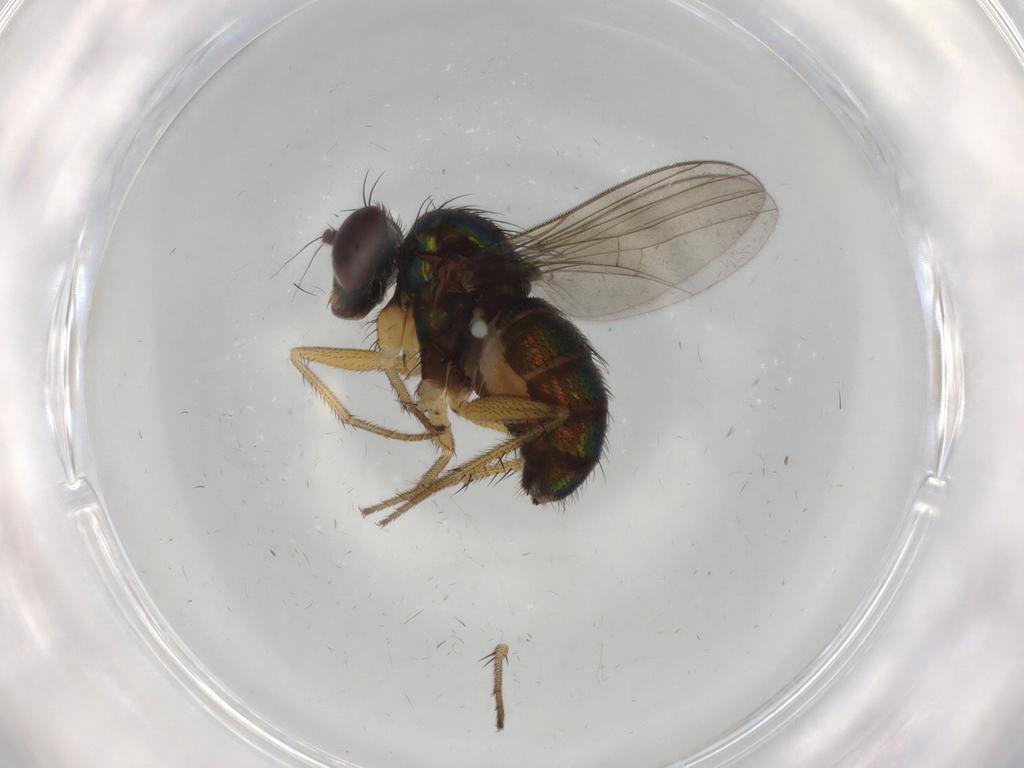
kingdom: Animalia
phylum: Arthropoda
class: Insecta
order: Diptera
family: Dolichopodidae
